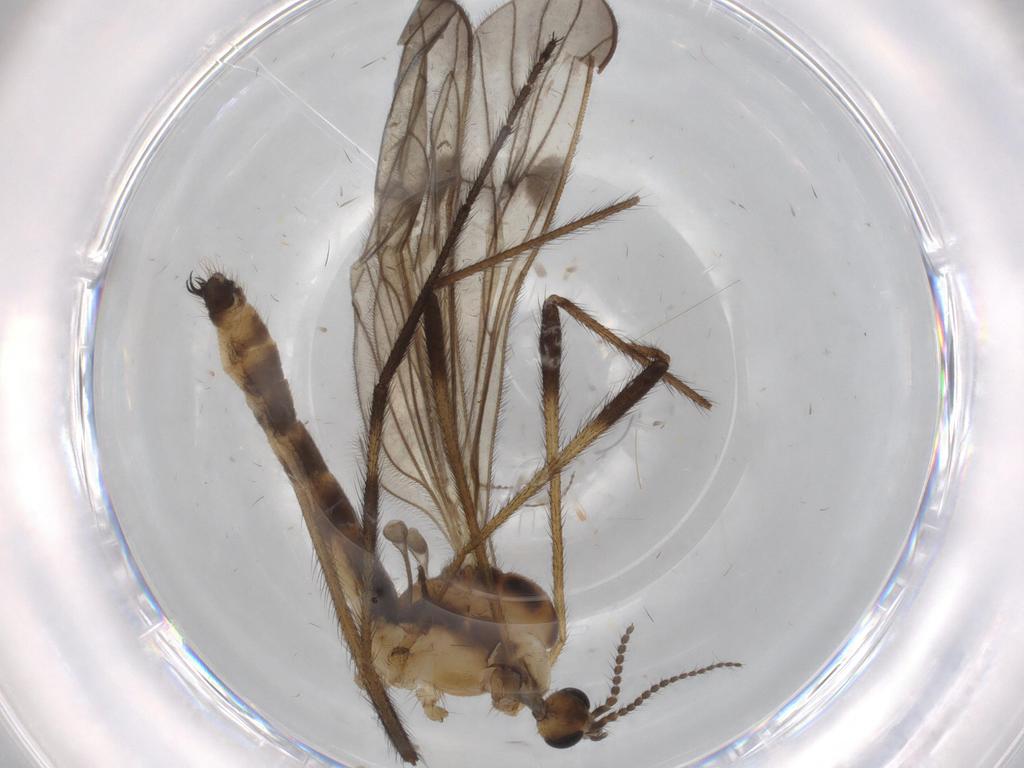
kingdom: Animalia
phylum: Arthropoda
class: Insecta
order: Diptera
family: Limoniidae
